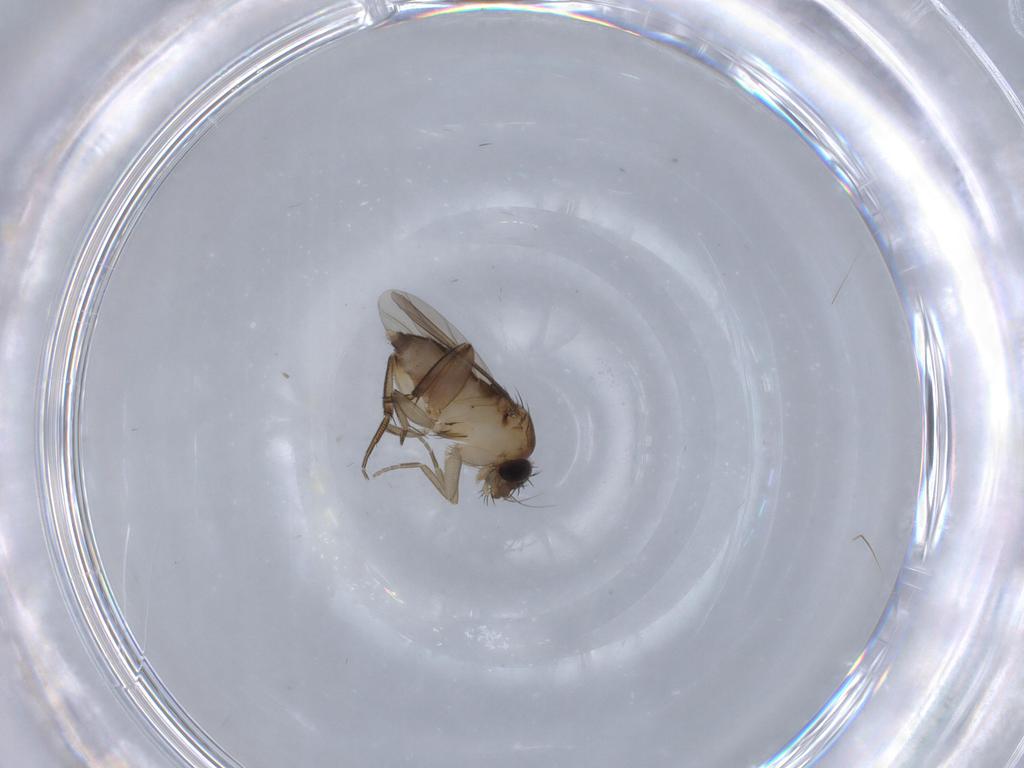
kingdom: Animalia
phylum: Arthropoda
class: Insecta
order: Diptera
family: Phoridae
